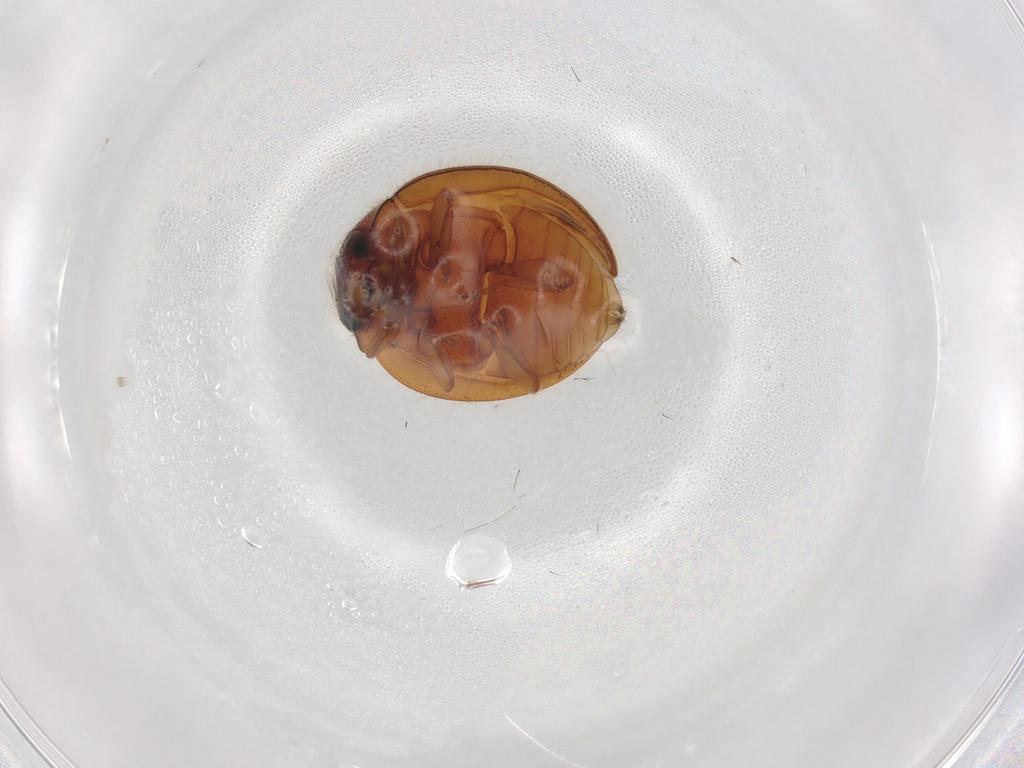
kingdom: Animalia
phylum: Arthropoda
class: Insecta
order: Coleoptera
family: Coccinellidae
